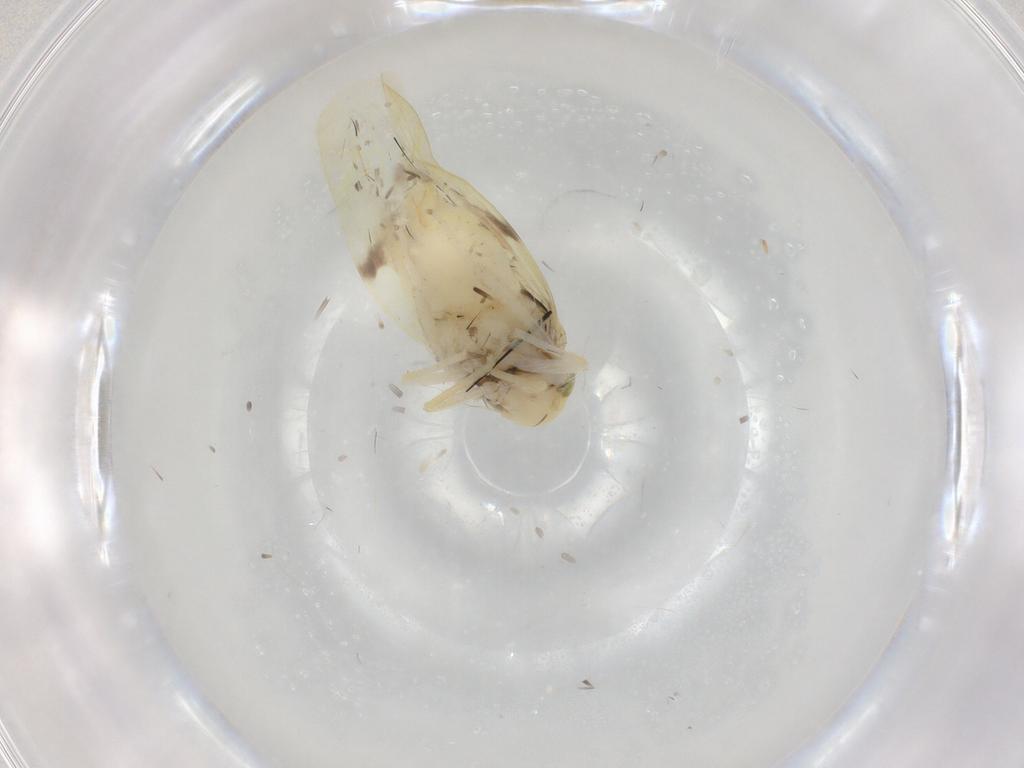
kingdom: Animalia
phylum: Arthropoda
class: Insecta
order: Hemiptera
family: Cicadellidae
